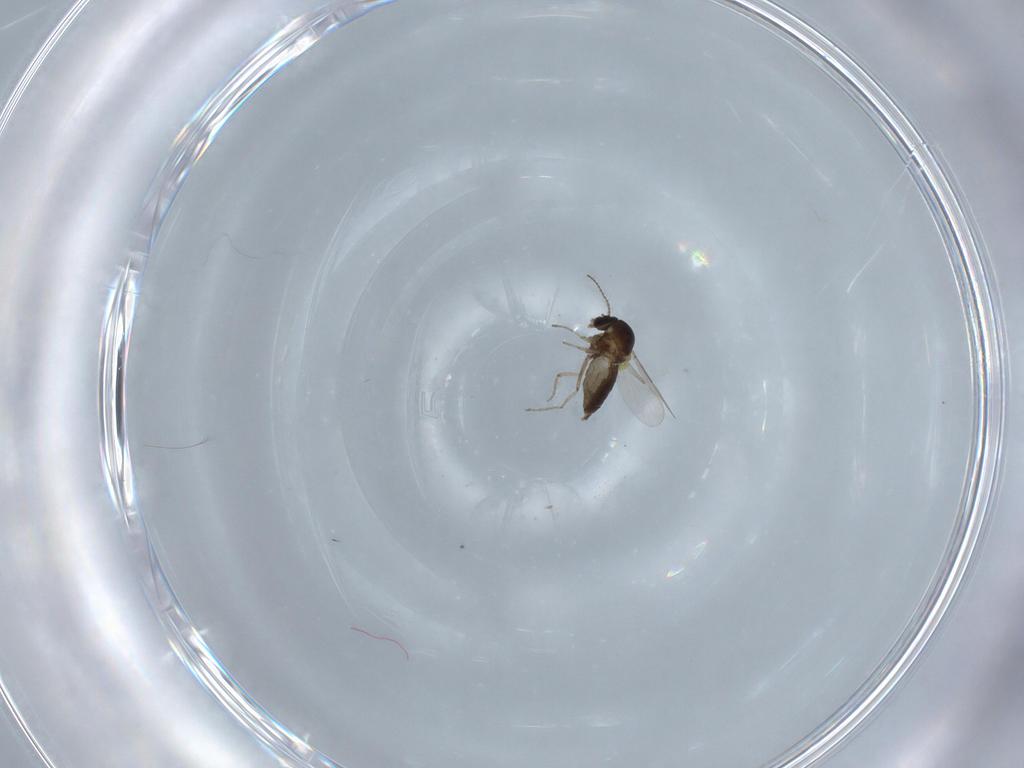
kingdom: Animalia
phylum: Arthropoda
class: Insecta
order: Diptera
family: Ceratopogonidae
